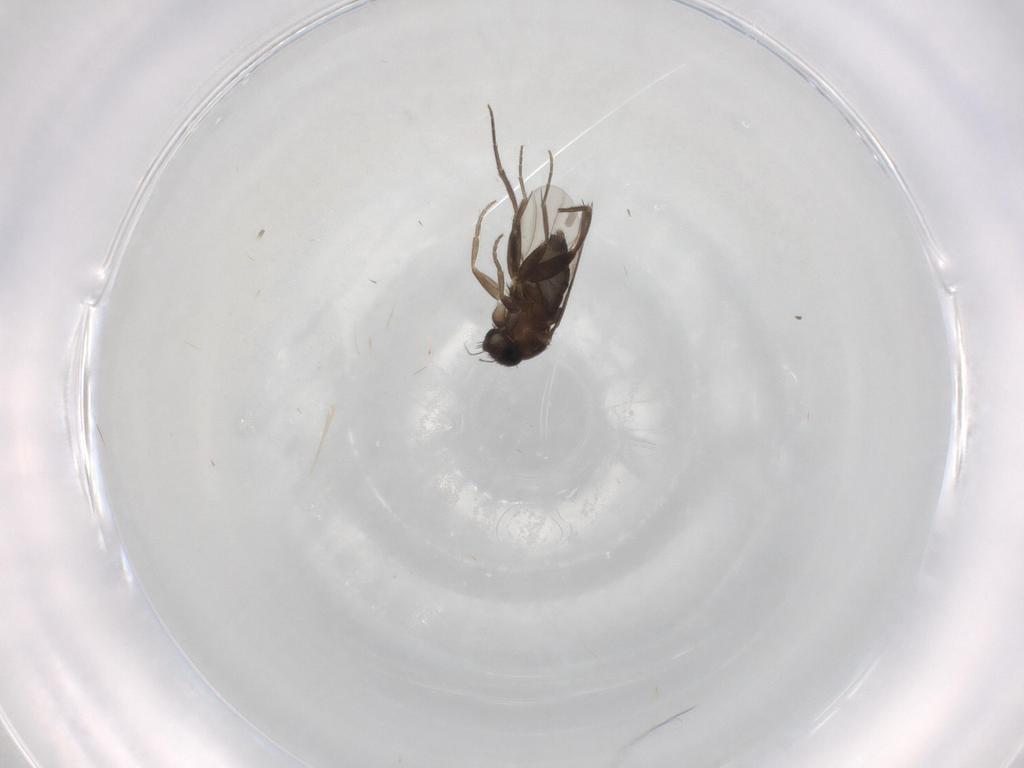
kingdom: Animalia
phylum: Arthropoda
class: Insecta
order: Diptera
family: Phoridae
